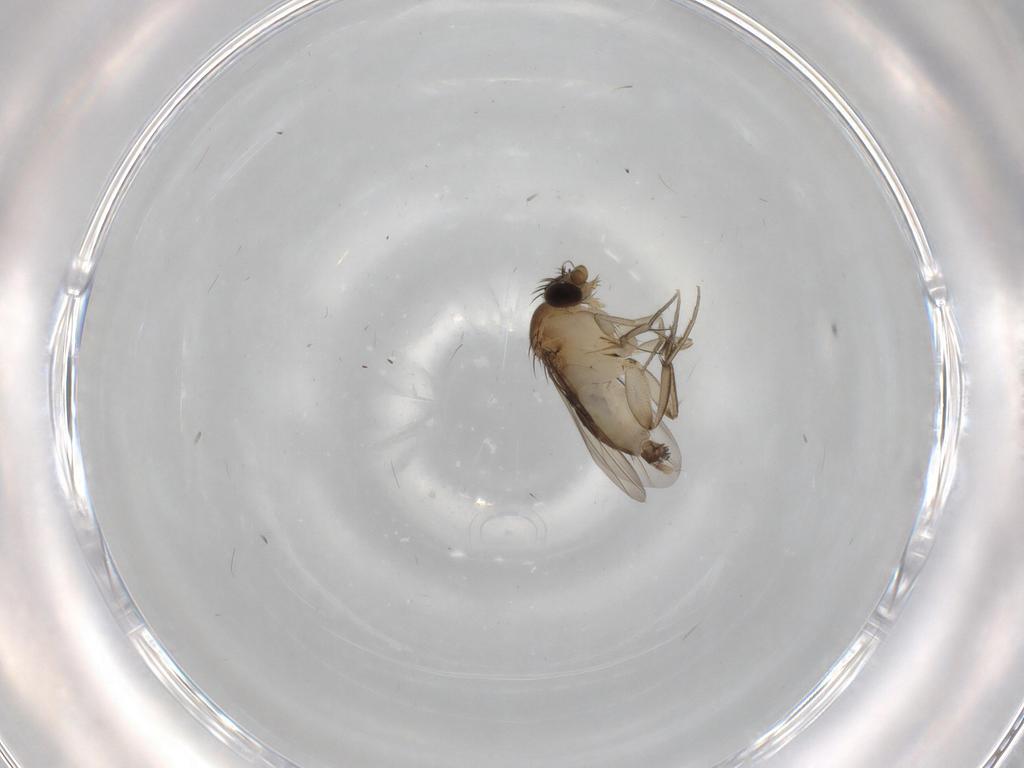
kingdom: Animalia
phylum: Arthropoda
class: Insecta
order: Diptera
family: Phoridae
